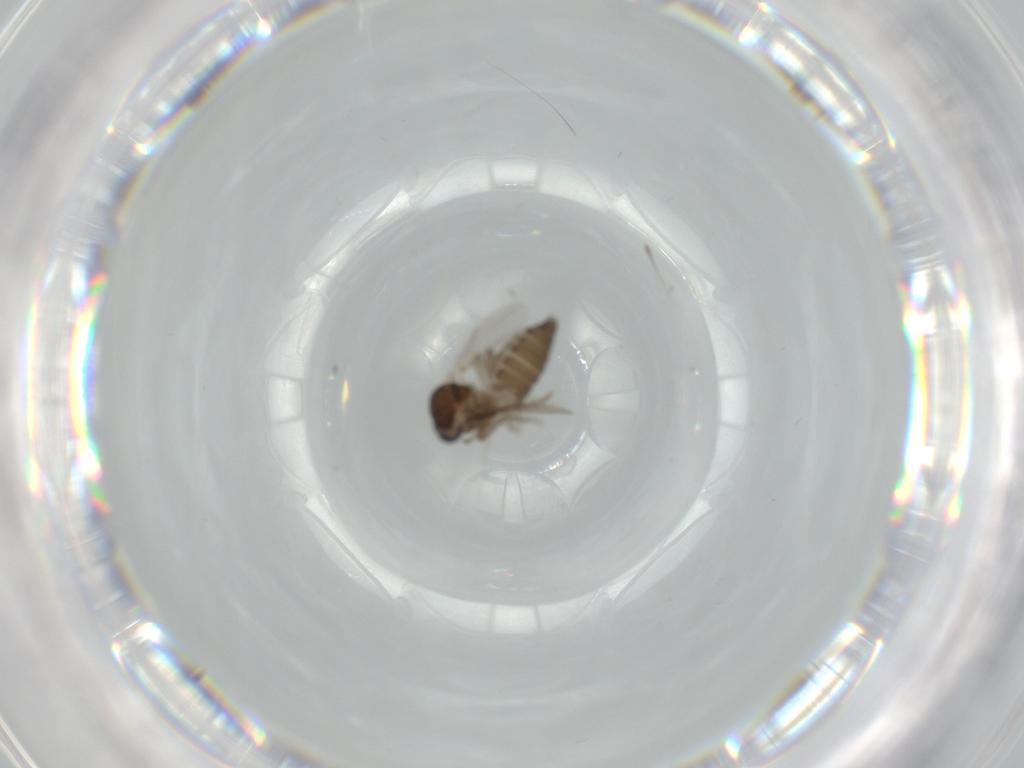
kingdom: Animalia
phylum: Arthropoda
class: Insecta
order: Diptera
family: Ceratopogonidae
